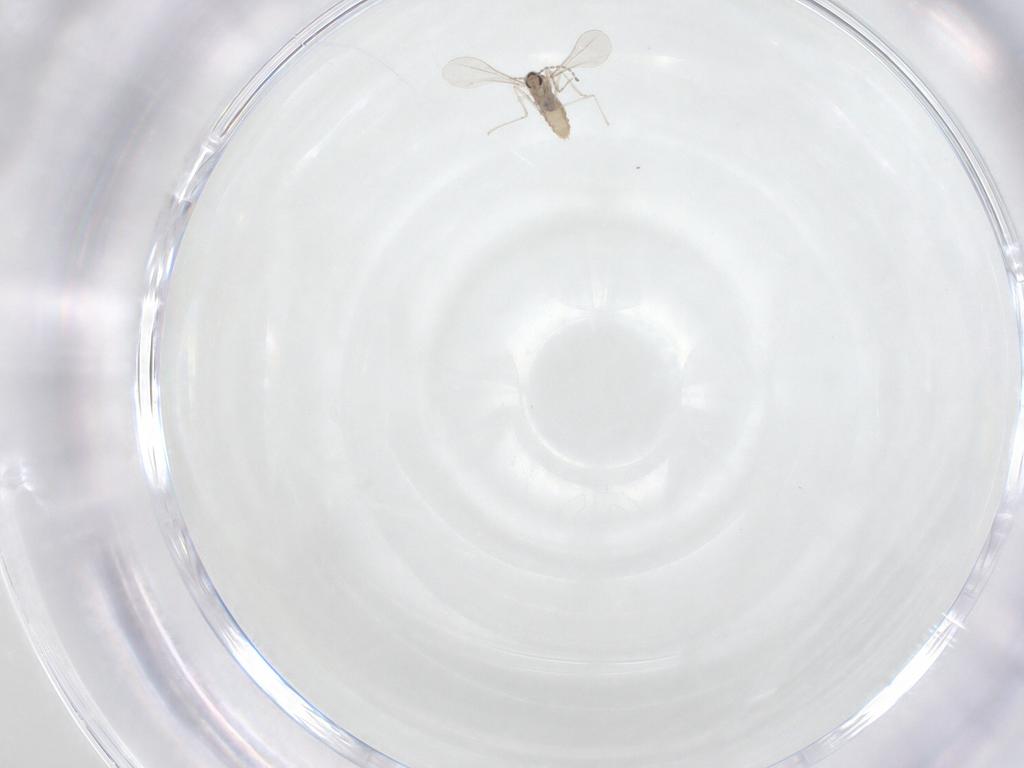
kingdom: Animalia
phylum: Arthropoda
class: Insecta
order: Diptera
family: Cecidomyiidae
